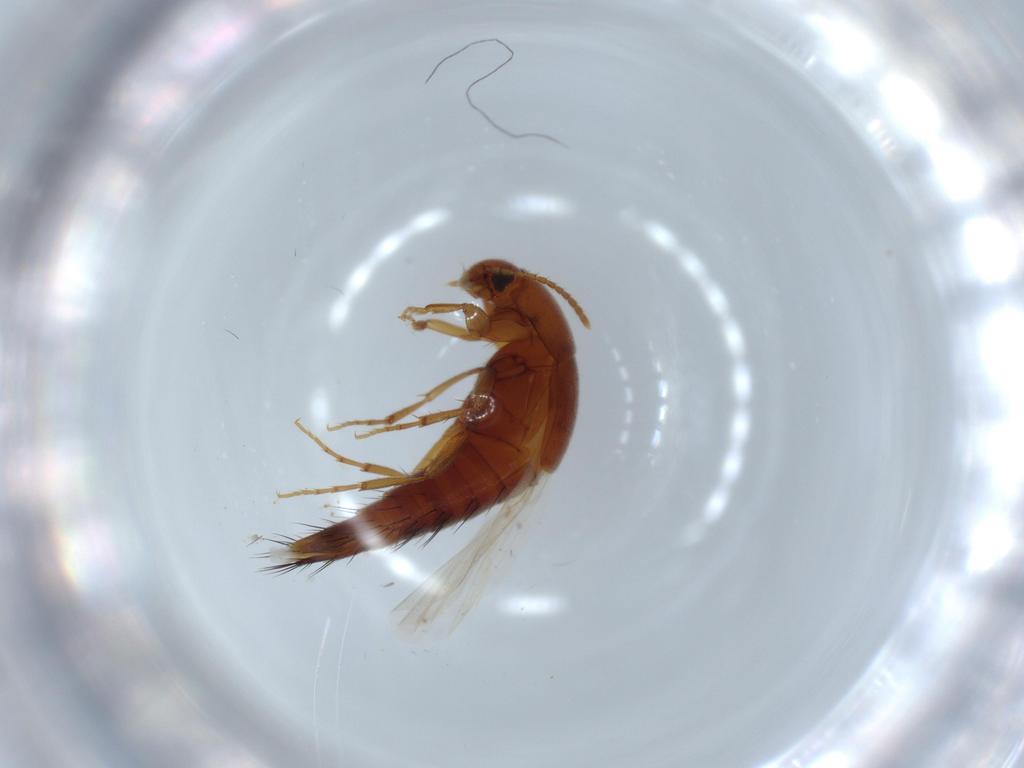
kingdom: Animalia
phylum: Arthropoda
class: Insecta
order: Coleoptera
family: Staphylinidae
